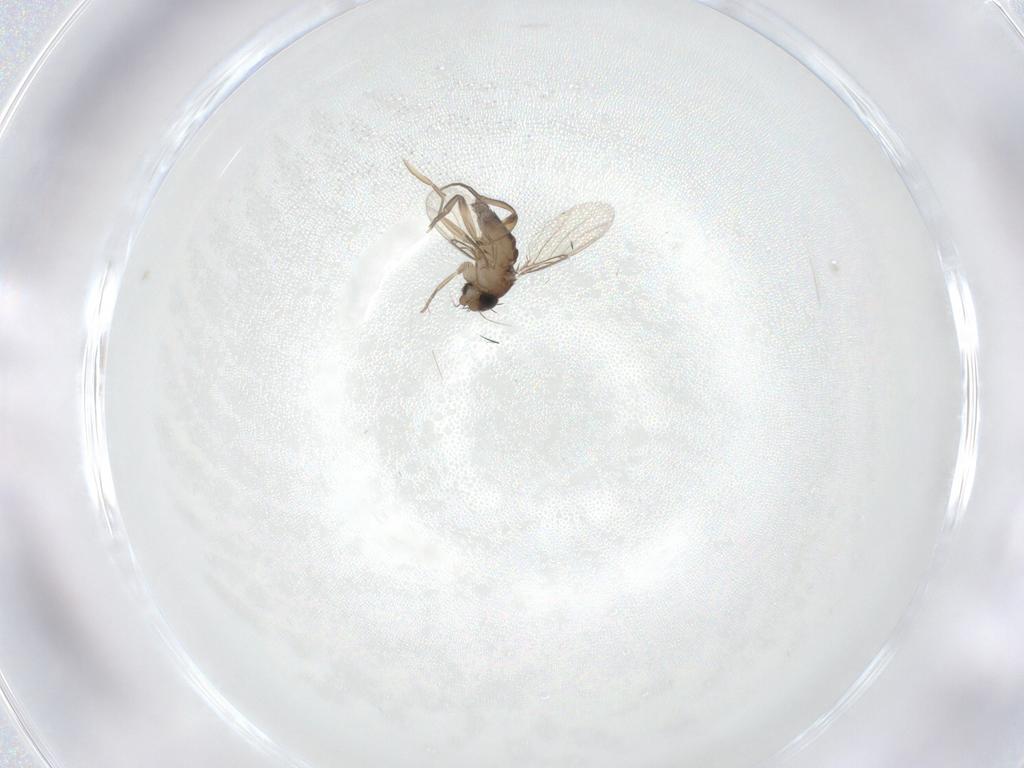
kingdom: Animalia
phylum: Arthropoda
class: Insecta
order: Diptera
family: Phoridae
